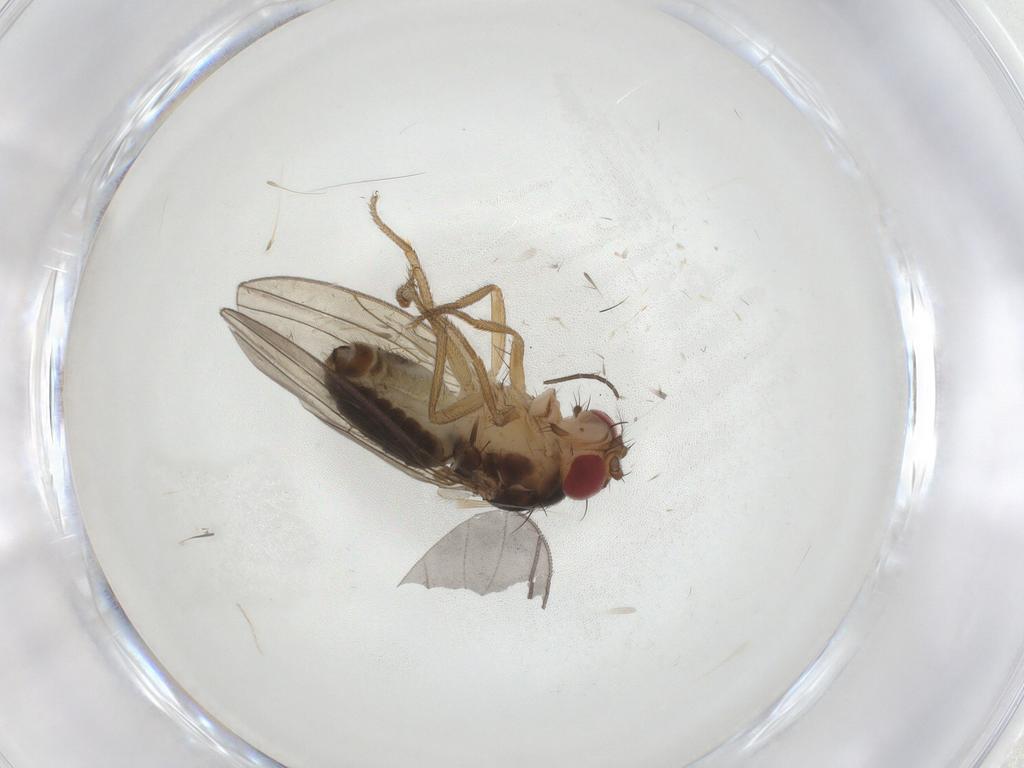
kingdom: Animalia
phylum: Arthropoda
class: Insecta
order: Diptera
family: Drosophilidae
